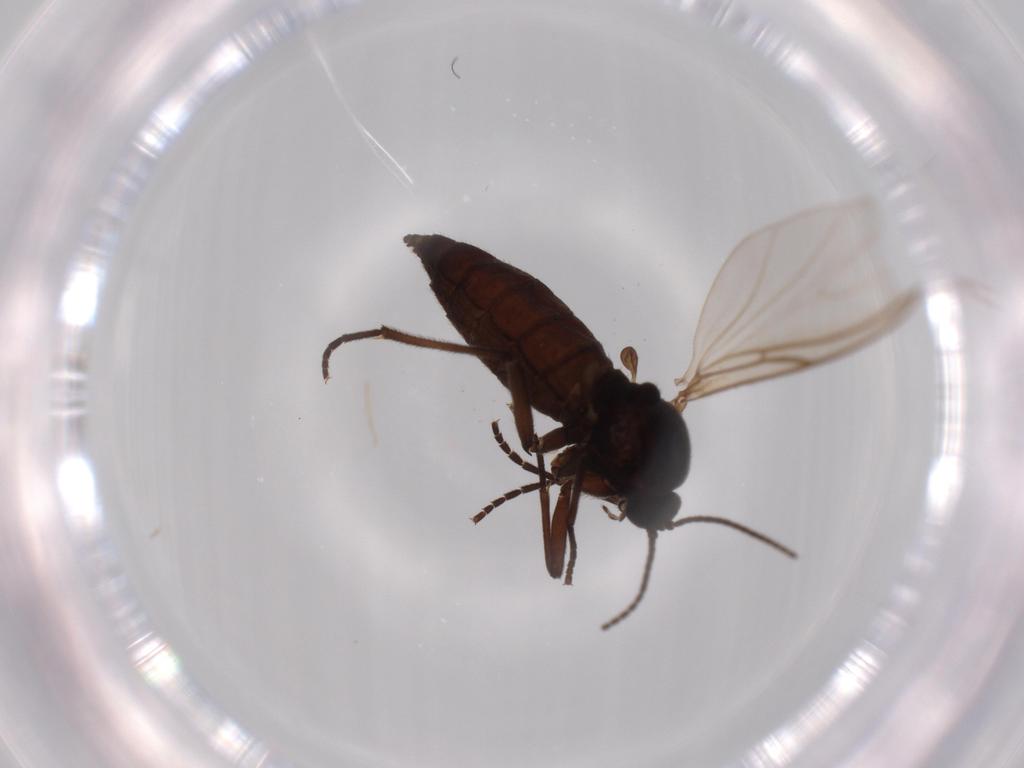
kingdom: Animalia
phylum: Arthropoda
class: Insecta
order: Diptera
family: Sciaridae
